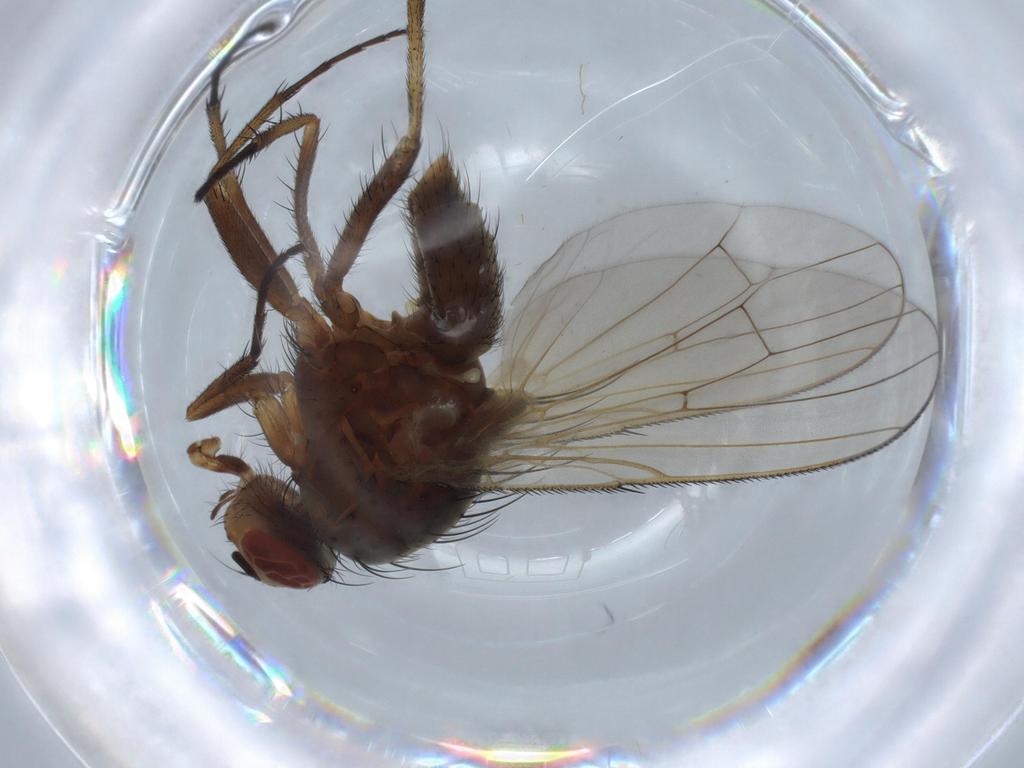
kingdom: Animalia
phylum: Arthropoda
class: Insecta
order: Diptera
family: Anthomyiidae
